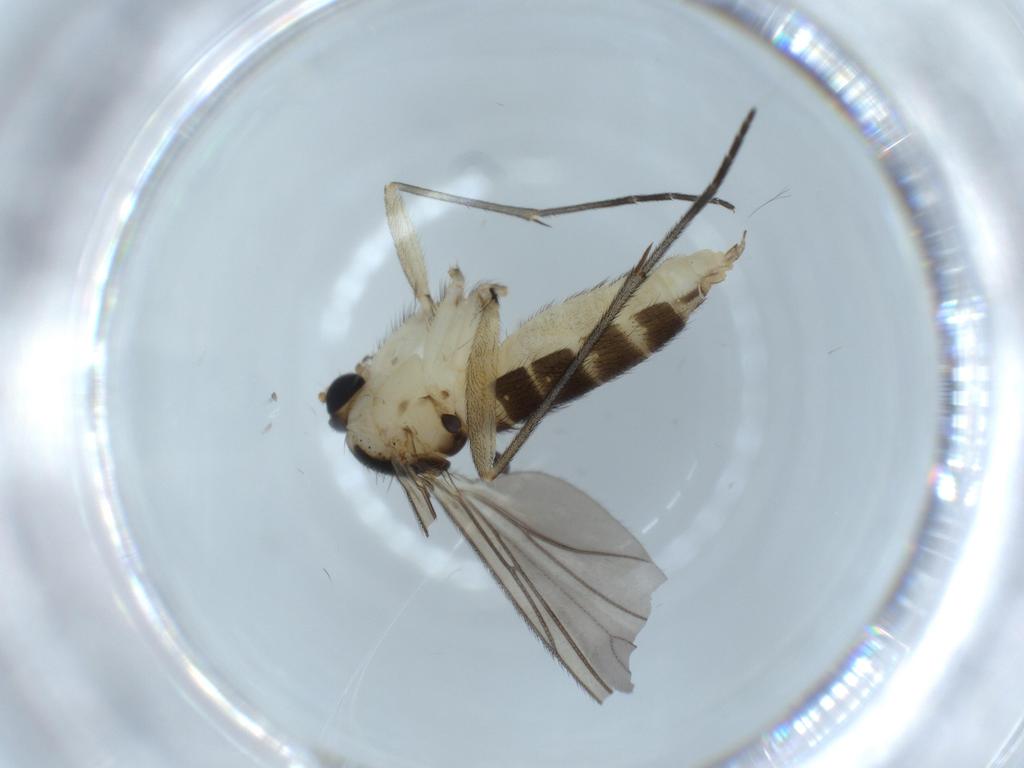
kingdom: Animalia
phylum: Arthropoda
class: Insecta
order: Diptera
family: Sciaridae
